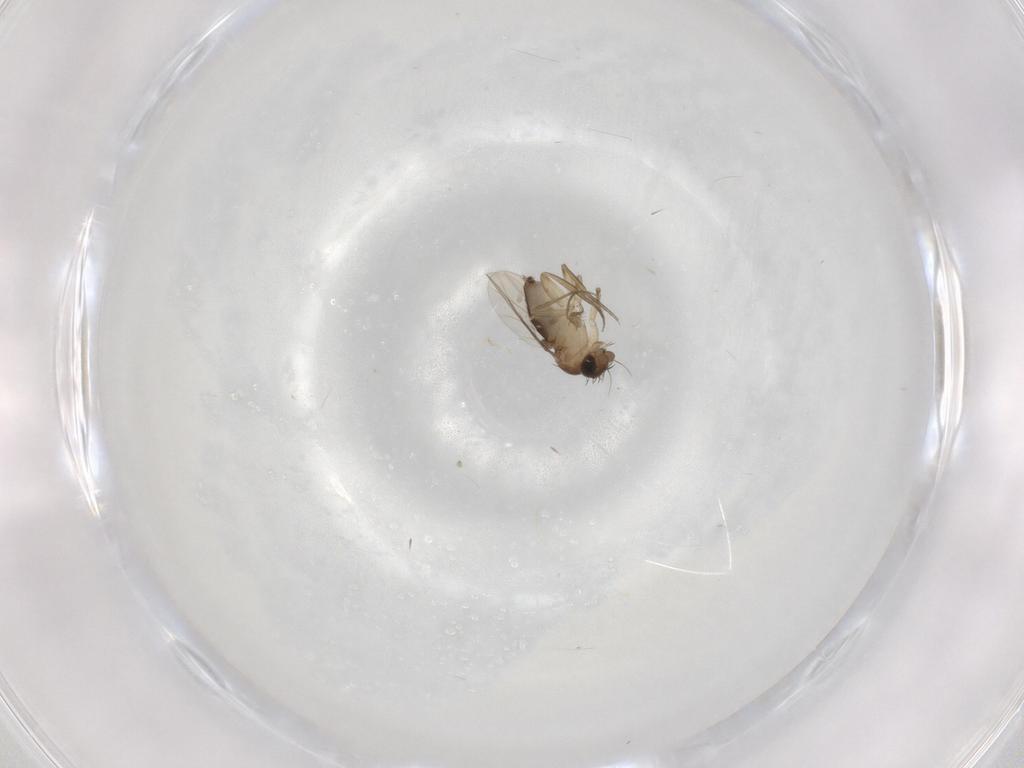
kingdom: Animalia
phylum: Arthropoda
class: Insecta
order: Diptera
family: Phoridae
